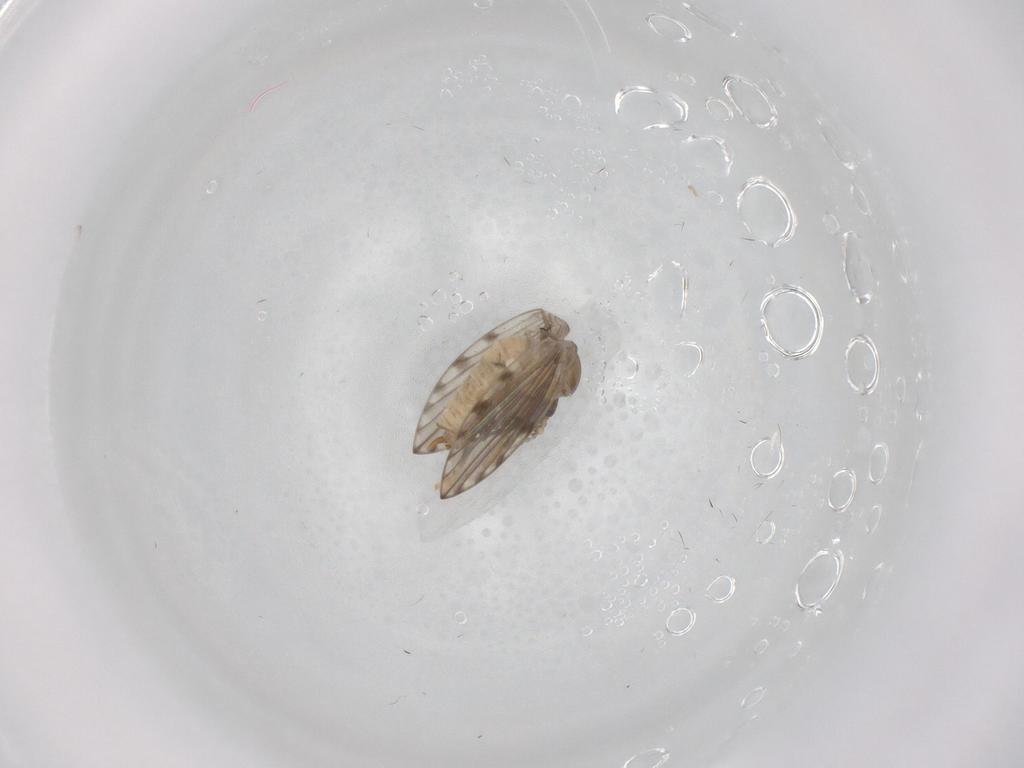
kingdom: Animalia
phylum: Arthropoda
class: Insecta
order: Diptera
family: Psychodidae
